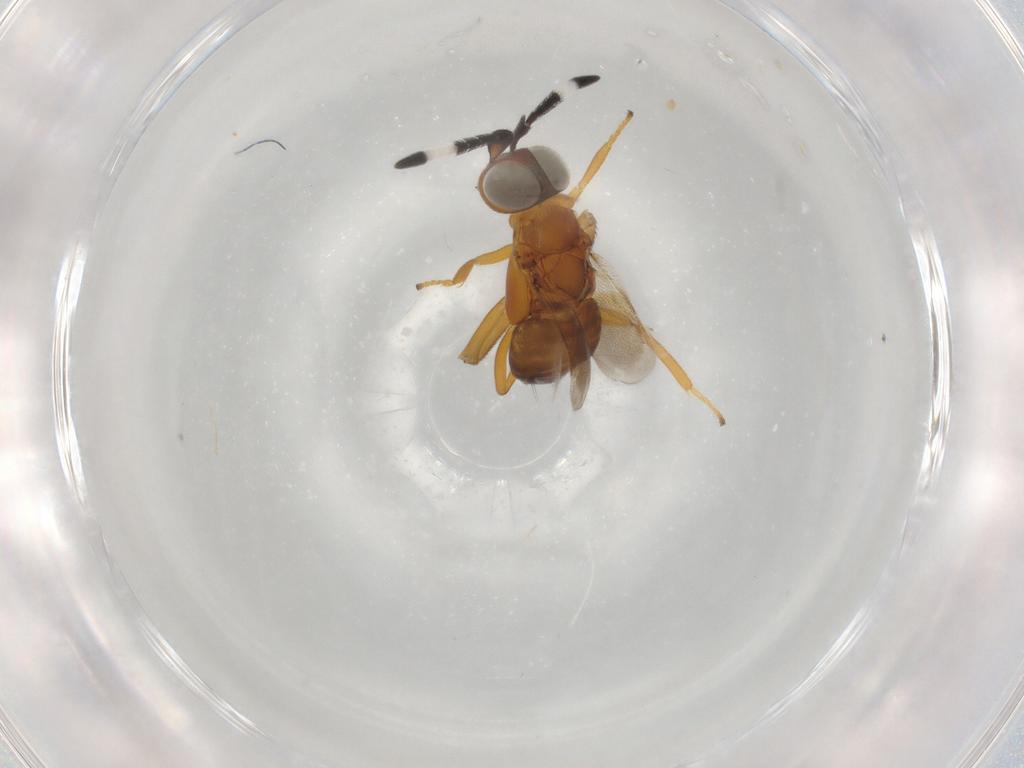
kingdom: Animalia
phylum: Arthropoda
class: Insecta
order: Hymenoptera
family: Encyrtidae
